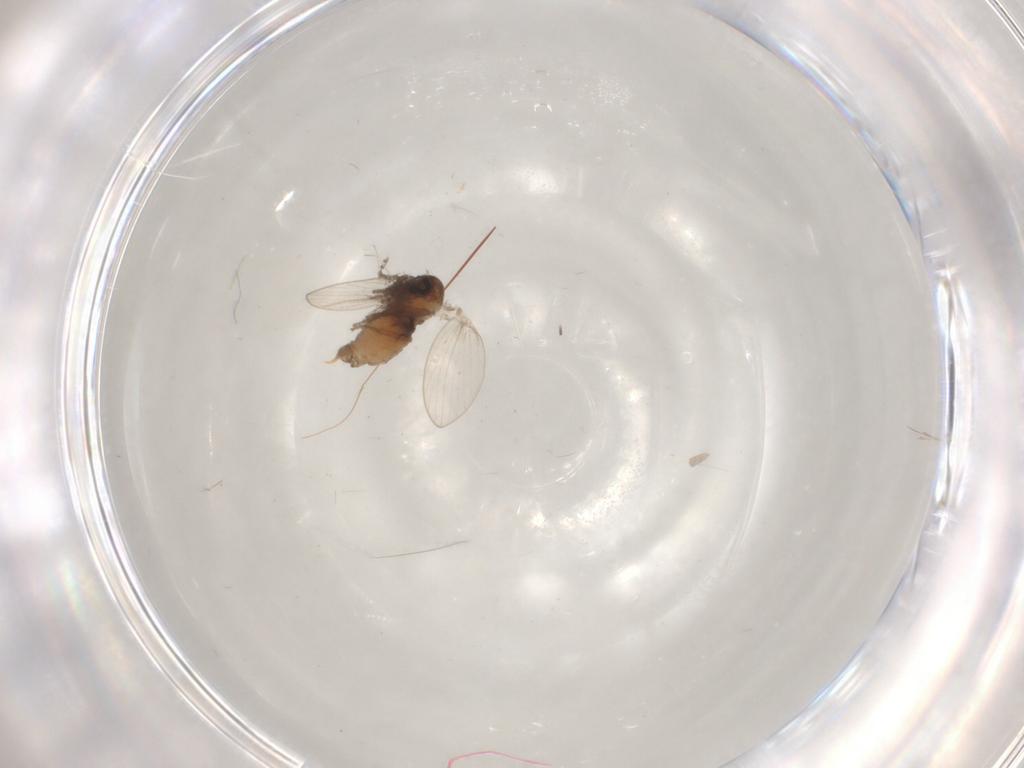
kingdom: Animalia
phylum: Arthropoda
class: Insecta
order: Diptera
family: Psychodidae
